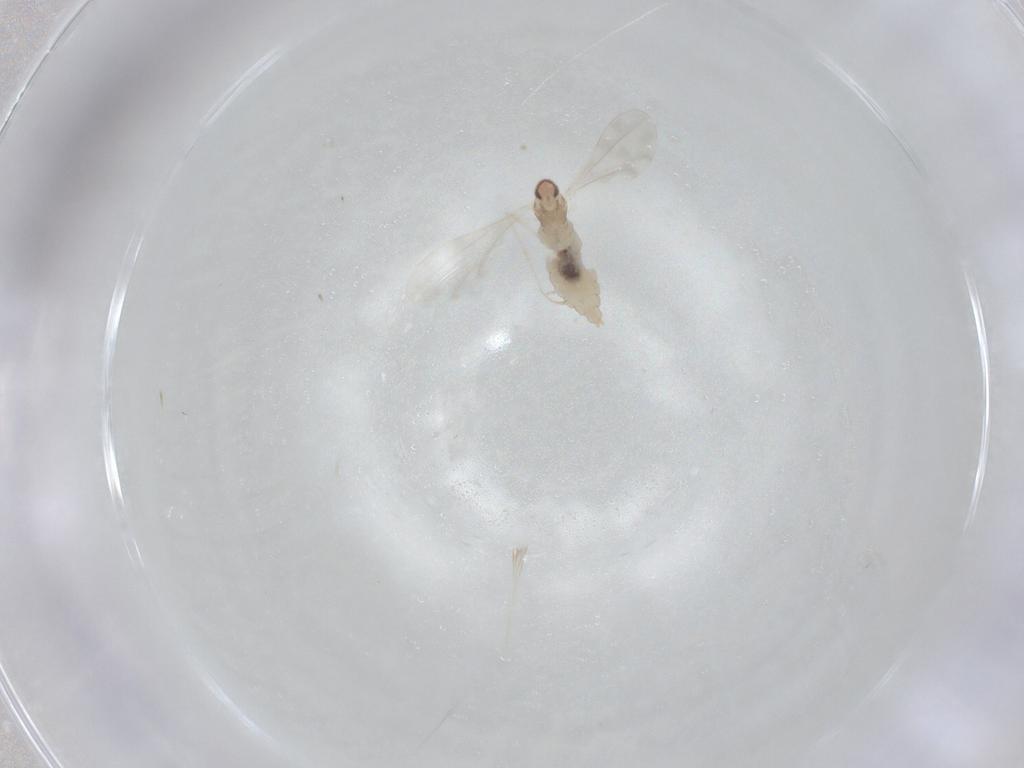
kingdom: Animalia
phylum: Arthropoda
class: Insecta
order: Diptera
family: Cecidomyiidae
